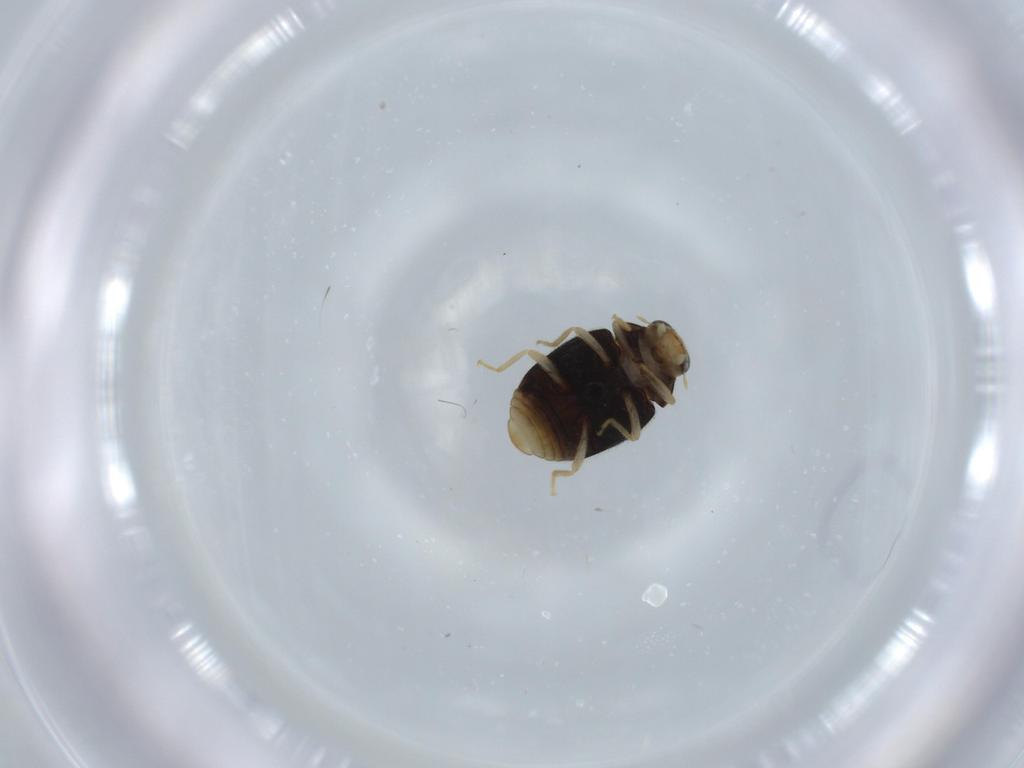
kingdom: Animalia
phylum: Arthropoda
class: Insecta
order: Coleoptera
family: Coccinellidae
